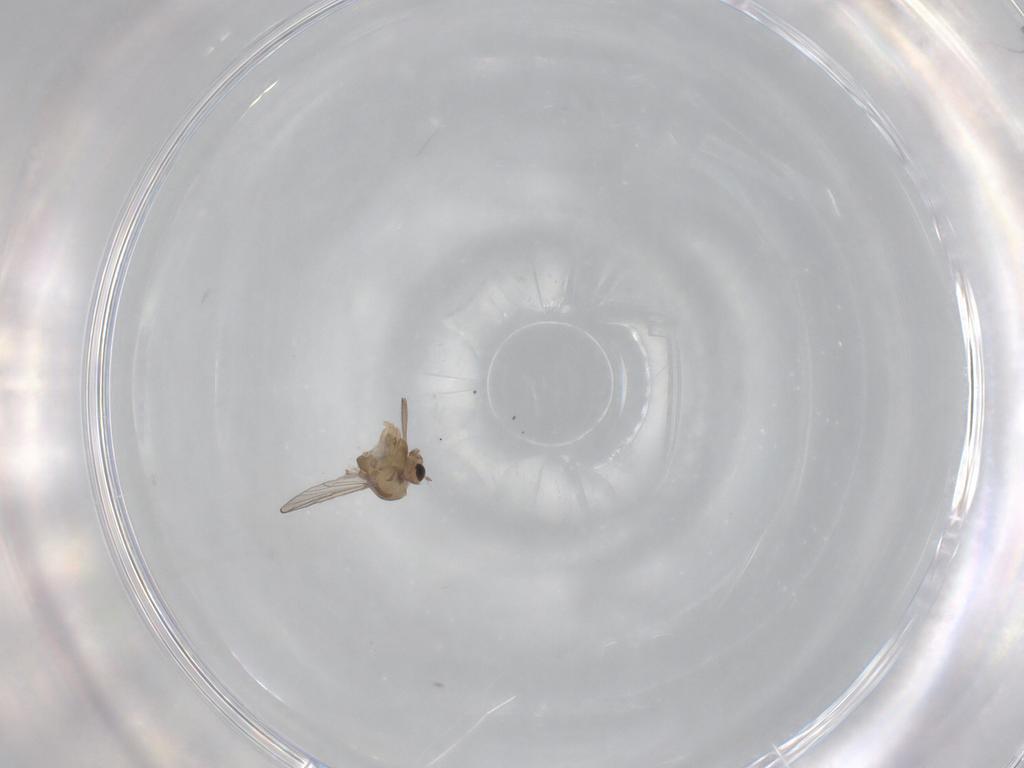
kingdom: Animalia
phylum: Arthropoda
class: Insecta
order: Diptera
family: Chironomidae
